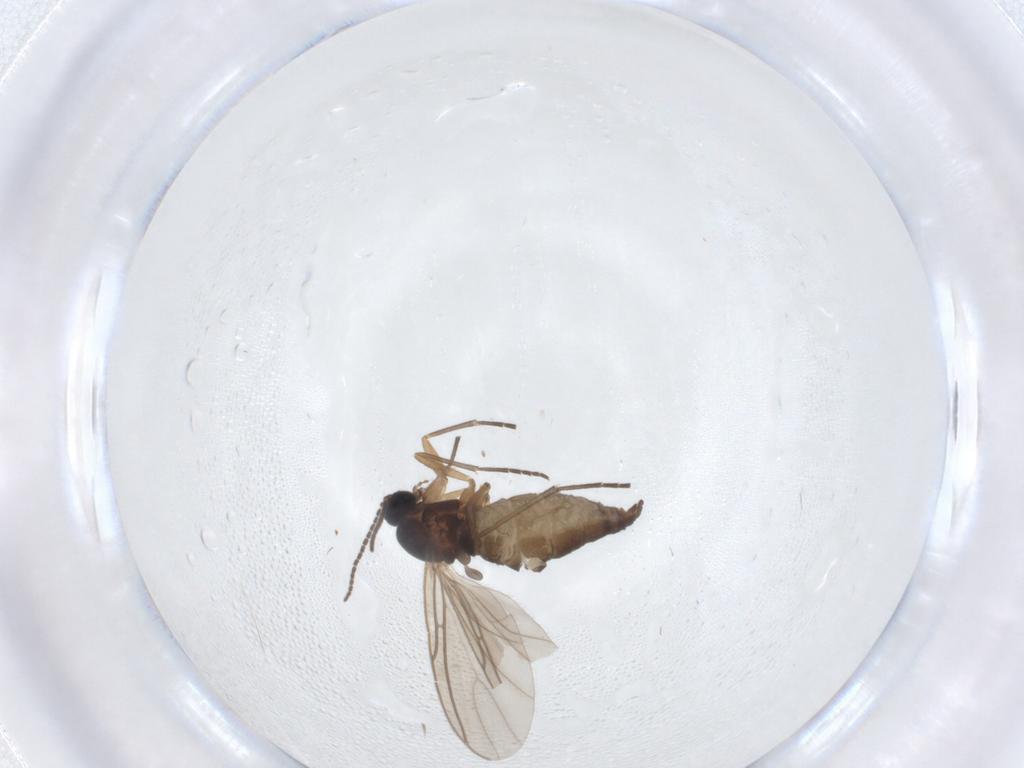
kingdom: Animalia
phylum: Arthropoda
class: Insecta
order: Diptera
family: Sciaridae
